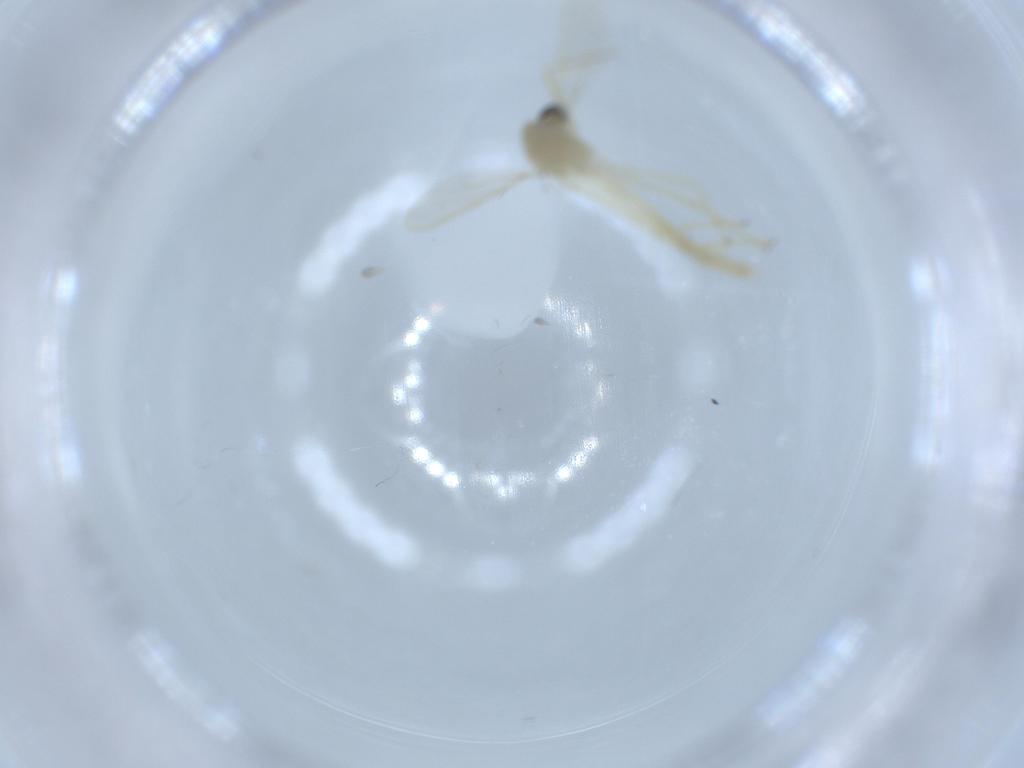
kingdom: Animalia
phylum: Arthropoda
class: Insecta
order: Diptera
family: Chironomidae
